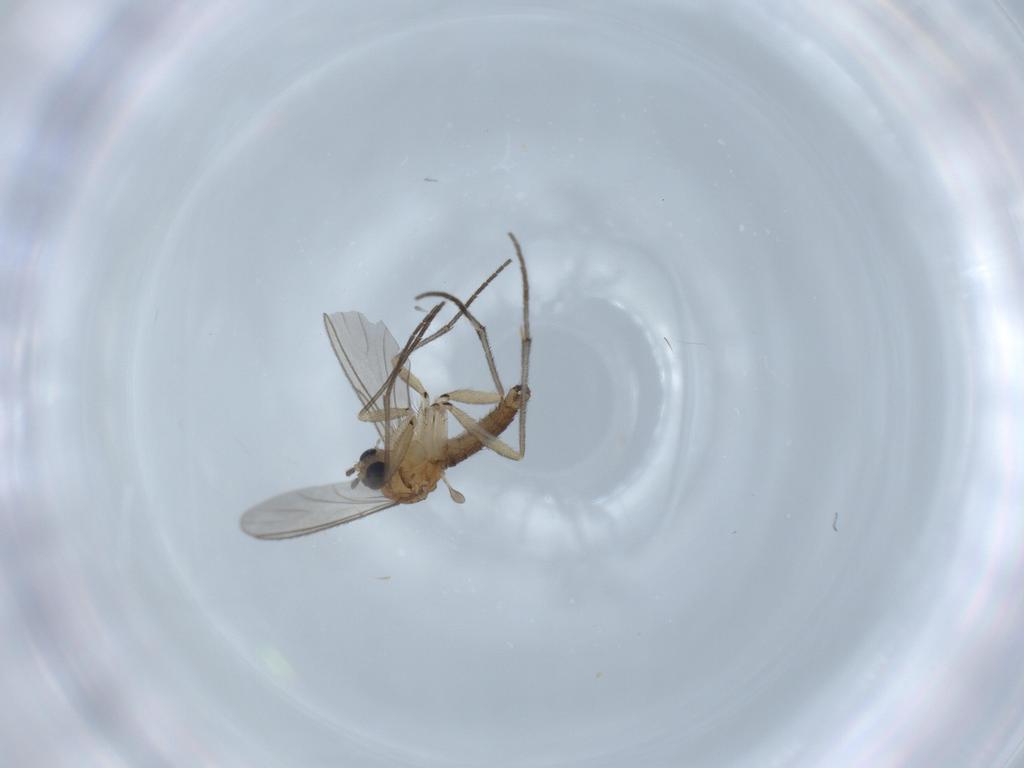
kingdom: Animalia
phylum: Arthropoda
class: Insecta
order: Diptera
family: Sciaridae
